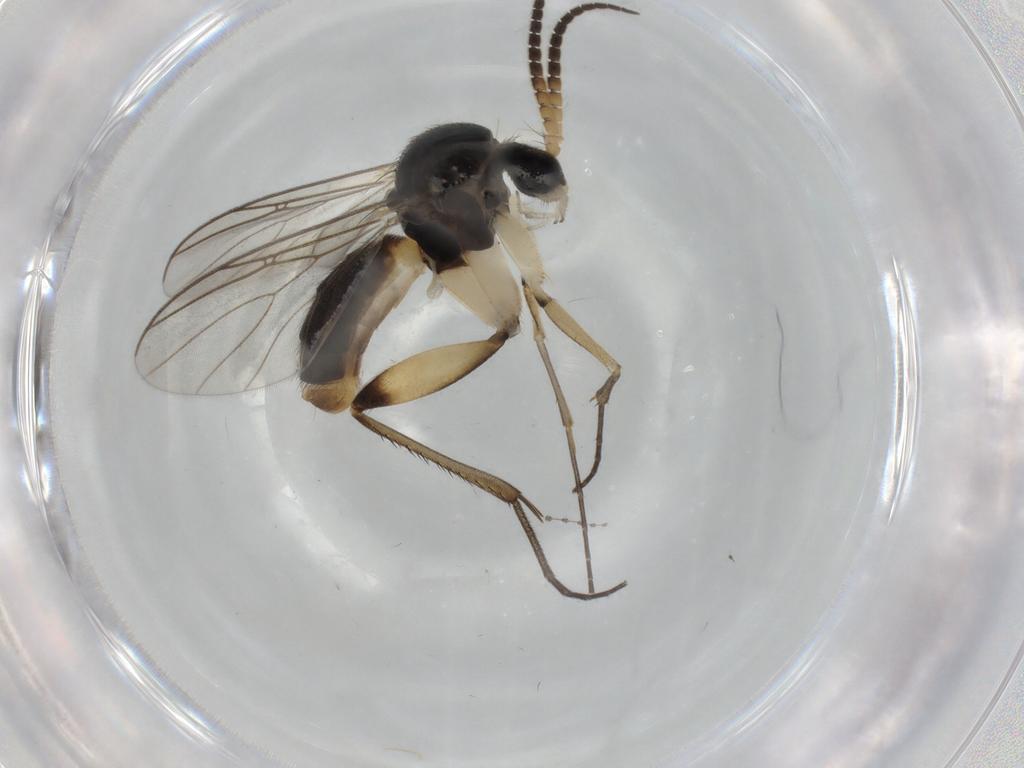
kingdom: Animalia
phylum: Arthropoda
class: Insecta
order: Diptera
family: Mycetophilidae
